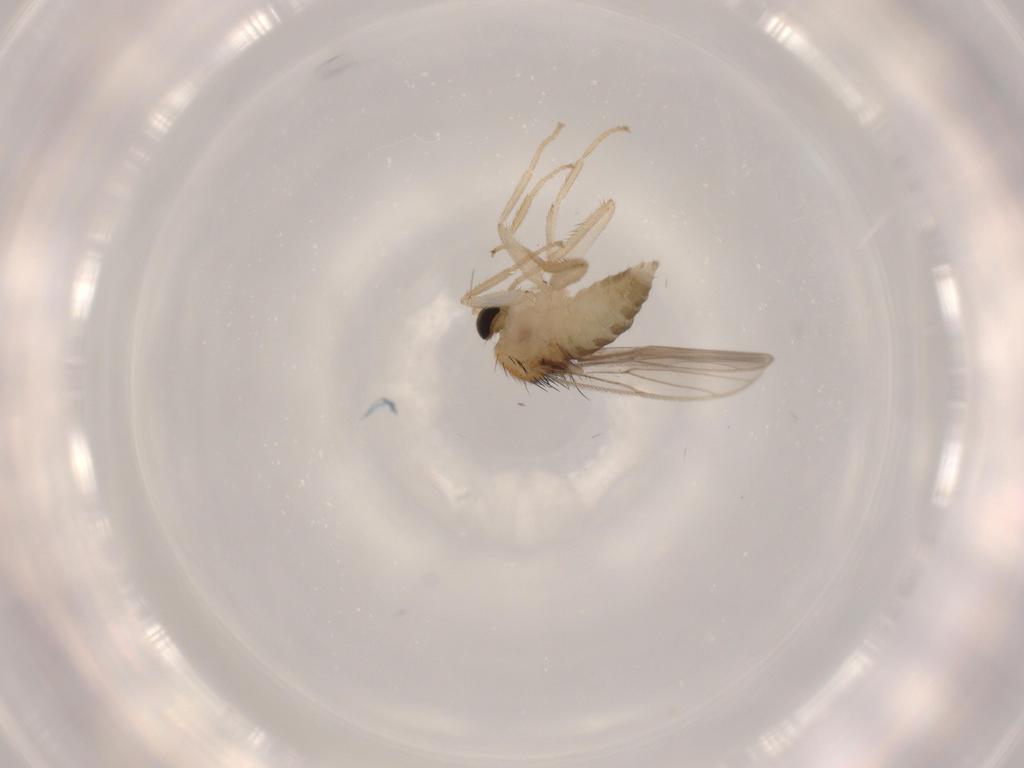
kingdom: Animalia
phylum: Arthropoda
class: Insecta
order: Diptera
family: Hybotidae
